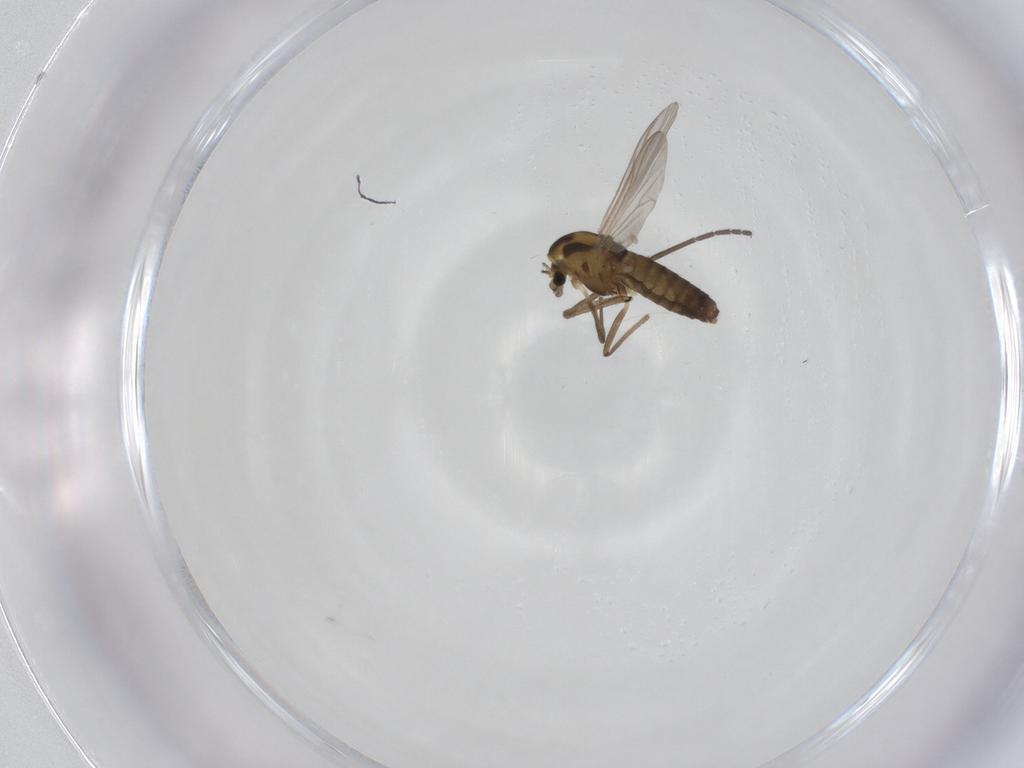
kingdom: Animalia
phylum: Arthropoda
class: Insecta
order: Diptera
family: Sciaridae
